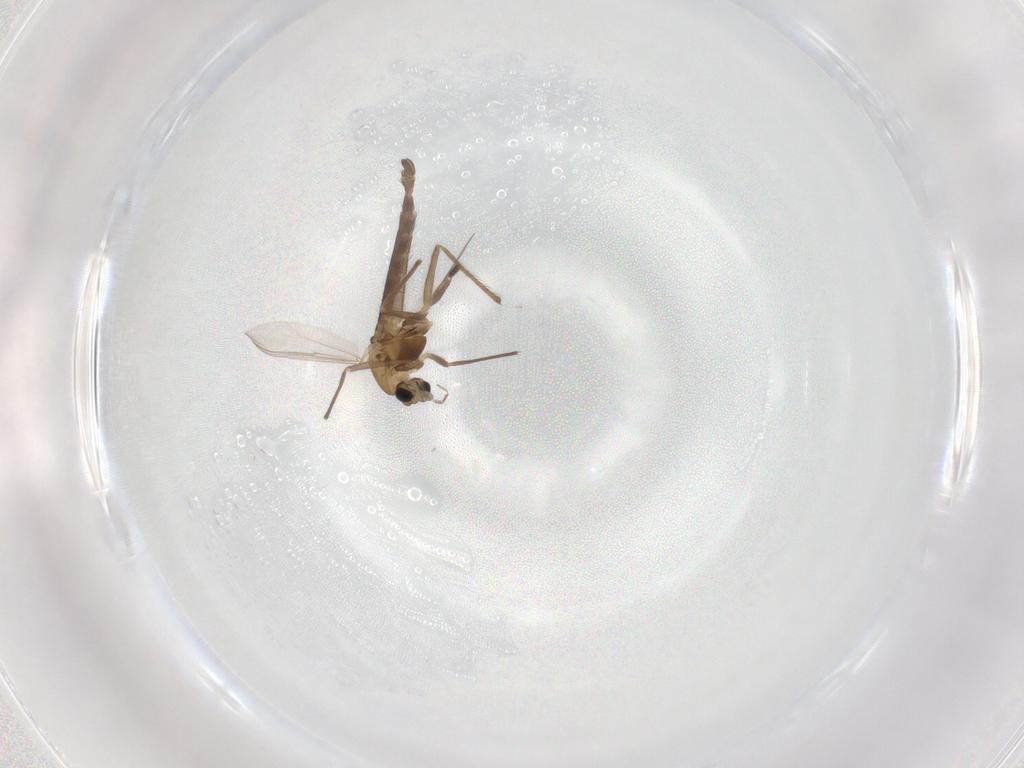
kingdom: Animalia
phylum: Arthropoda
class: Insecta
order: Diptera
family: Chironomidae
